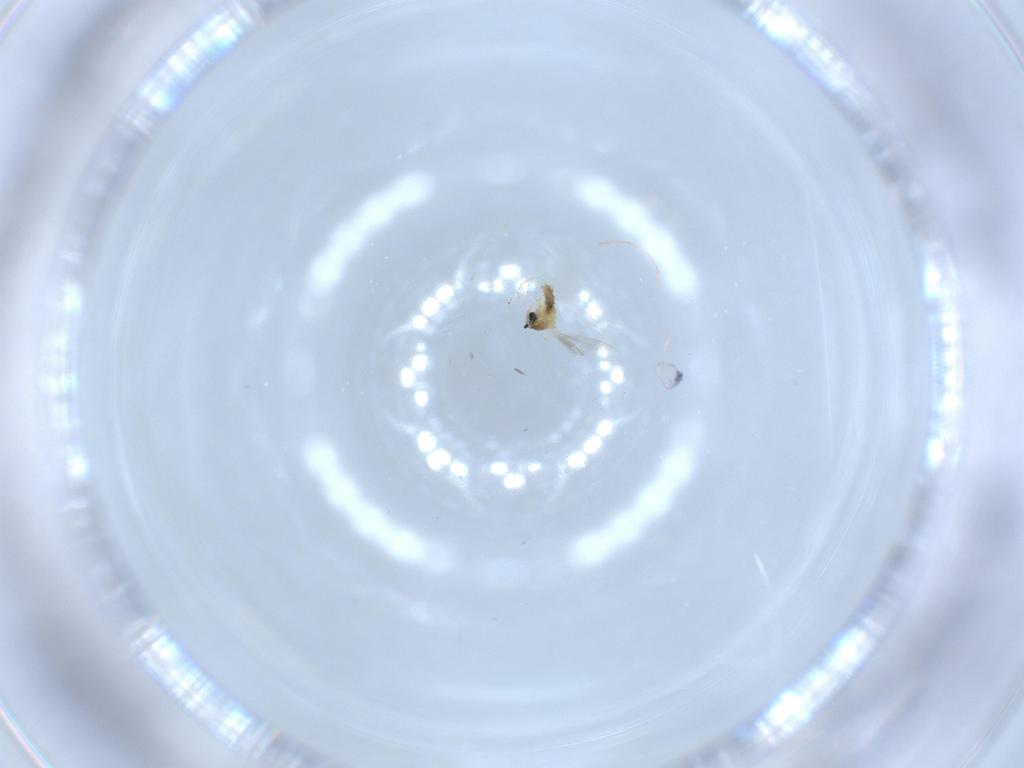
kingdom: Animalia
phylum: Arthropoda
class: Insecta
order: Diptera
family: Cecidomyiidae
